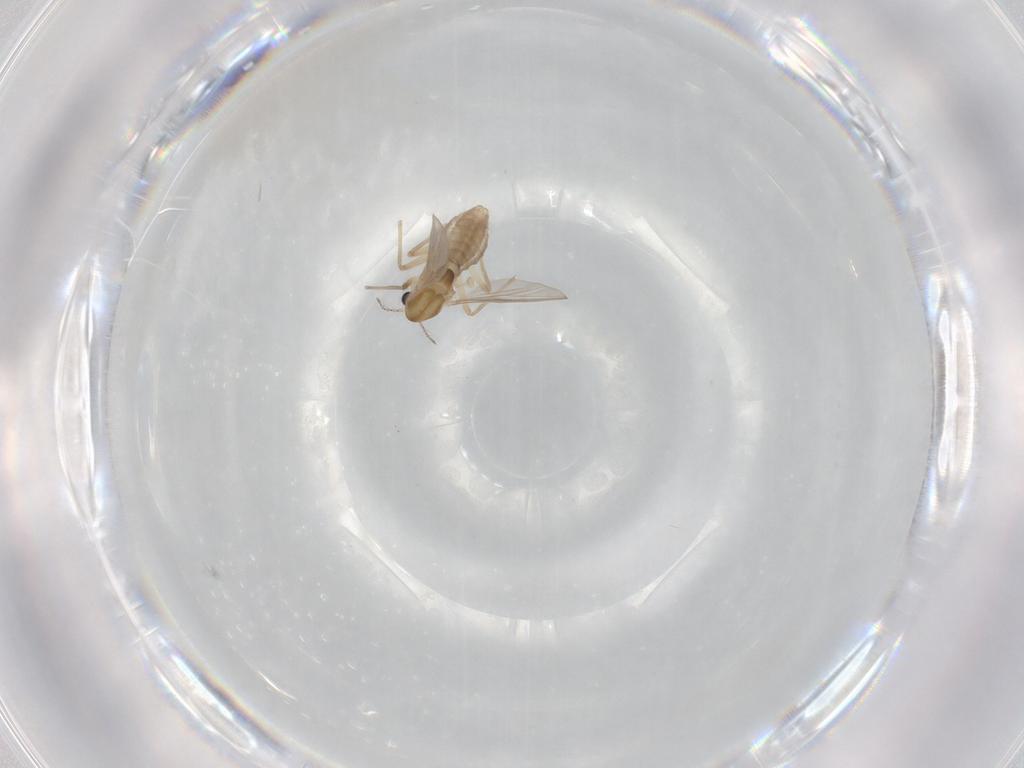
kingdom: Animalia
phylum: Arthropoda
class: Insecta
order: Diptera
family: Chironomidae
